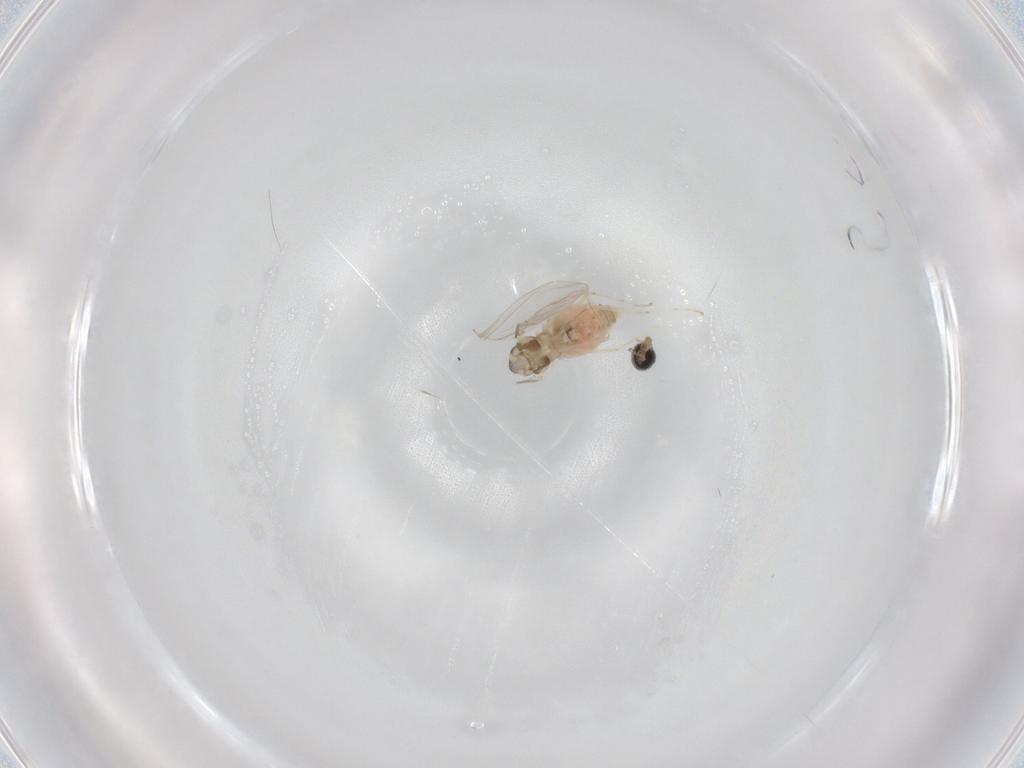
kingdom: Animalia
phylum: Arthropoda
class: Insecta
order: Diptera
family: Cecidomyiidae
